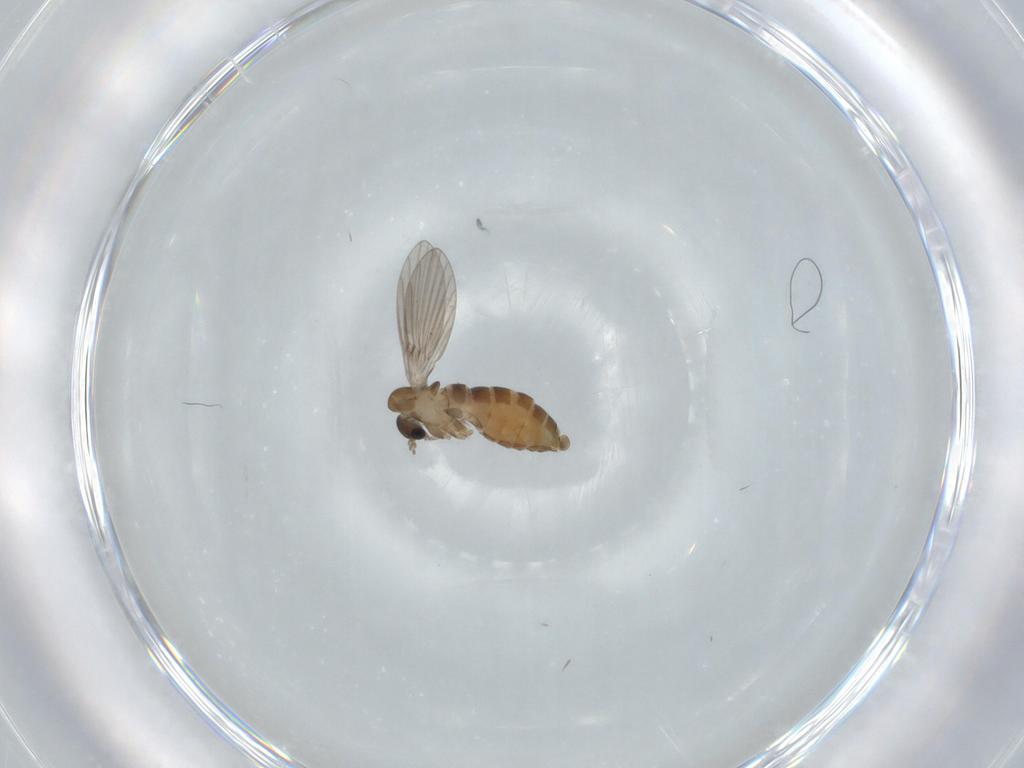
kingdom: Animalia
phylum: Arthropoda
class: Insecta
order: Diptera
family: Psychodidae
